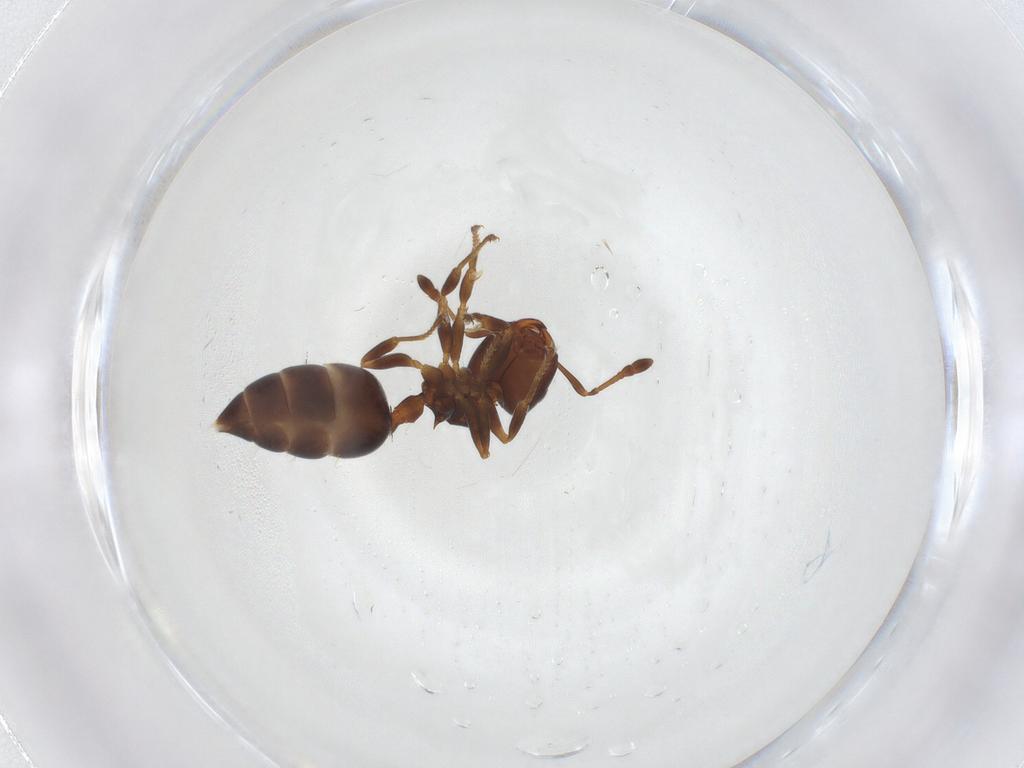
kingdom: Animalia
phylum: Arthropoda
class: Insecta
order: Hymenoptera
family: Formicidae
